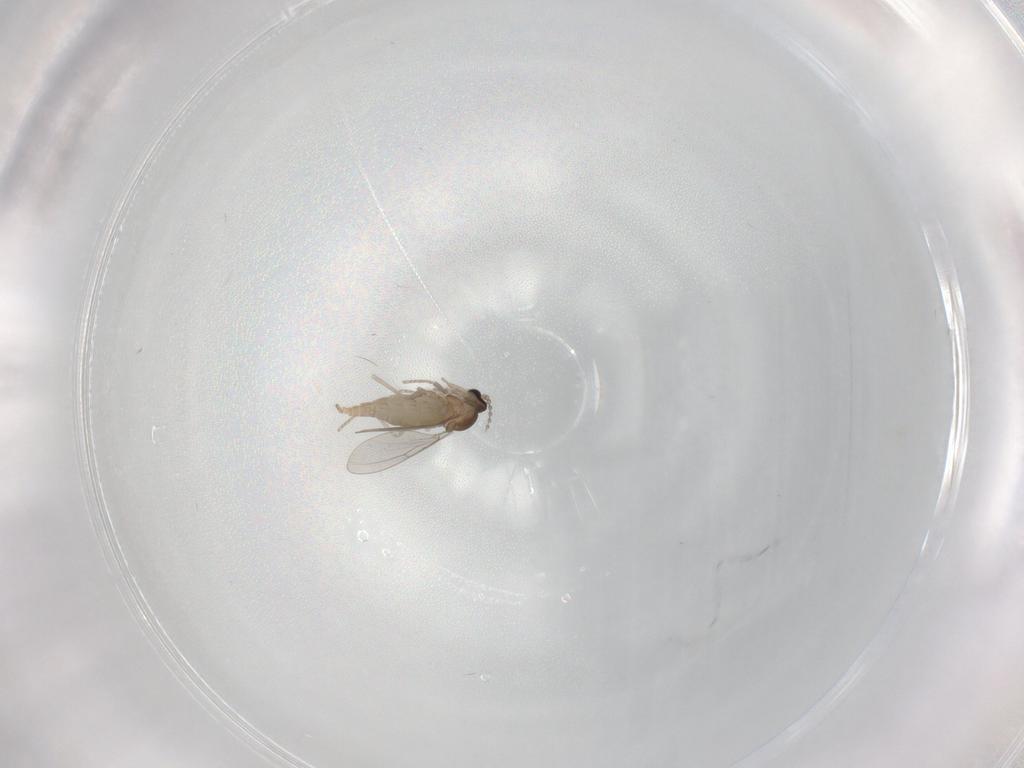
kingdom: Animalia
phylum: Arthropoda
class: Insecta
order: Diptera
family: Cecidomyiidae
